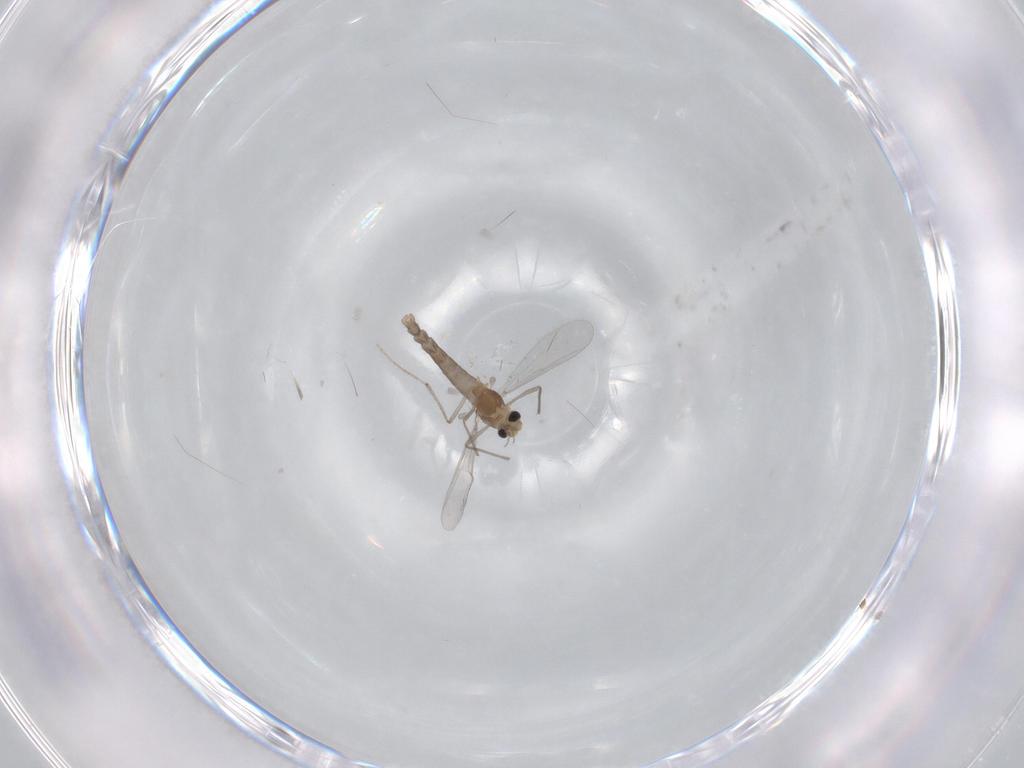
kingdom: Animalia
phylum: Arthropoda
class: Insecta
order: Diptera
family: Chironomidae
